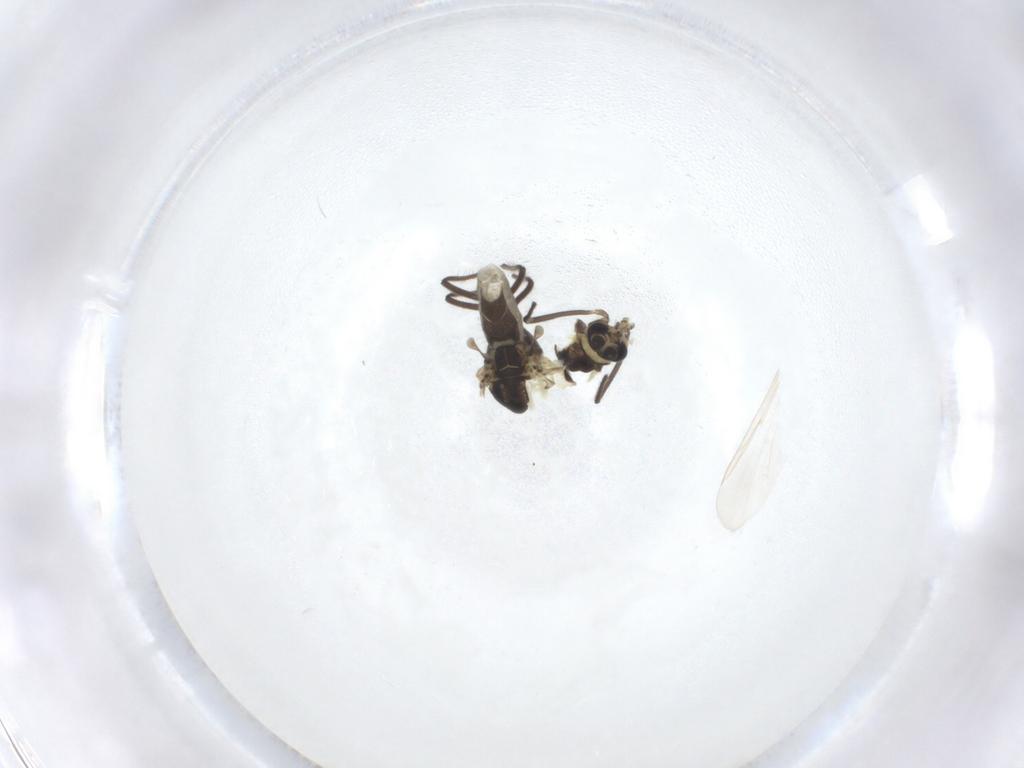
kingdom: Animalia
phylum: Arthropoda
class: Insecta
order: Diptera
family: Chironomidae
